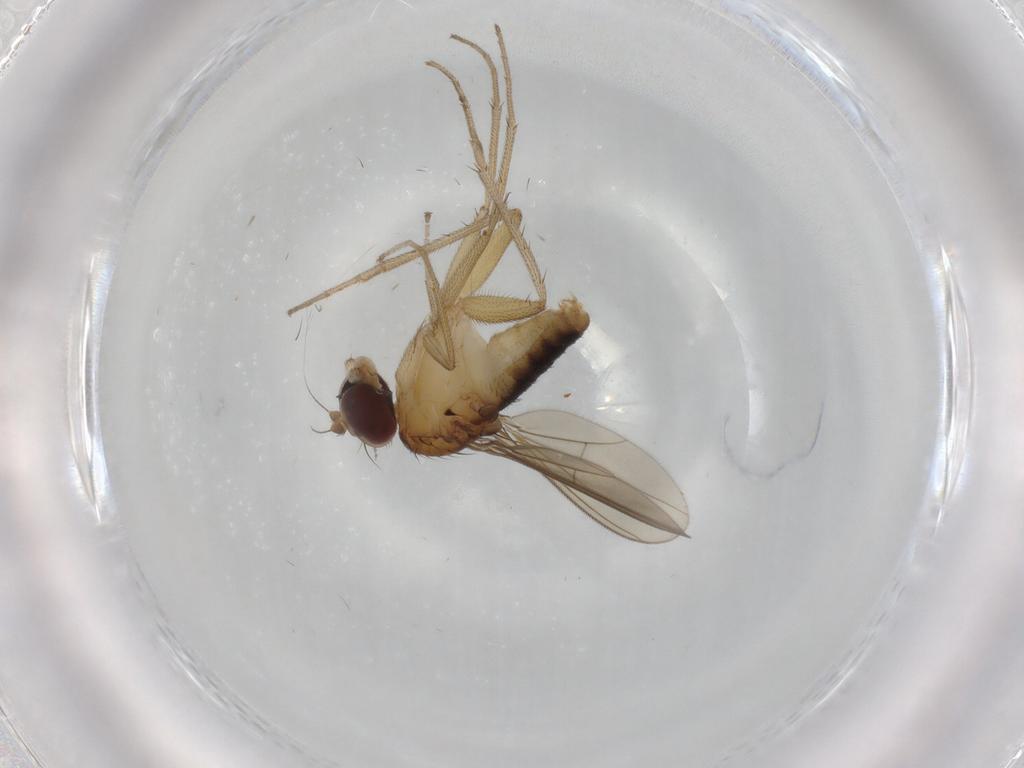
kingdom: Animalia
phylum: Arthropoda
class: Insecta
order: Diptera
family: Dolichopodidae
